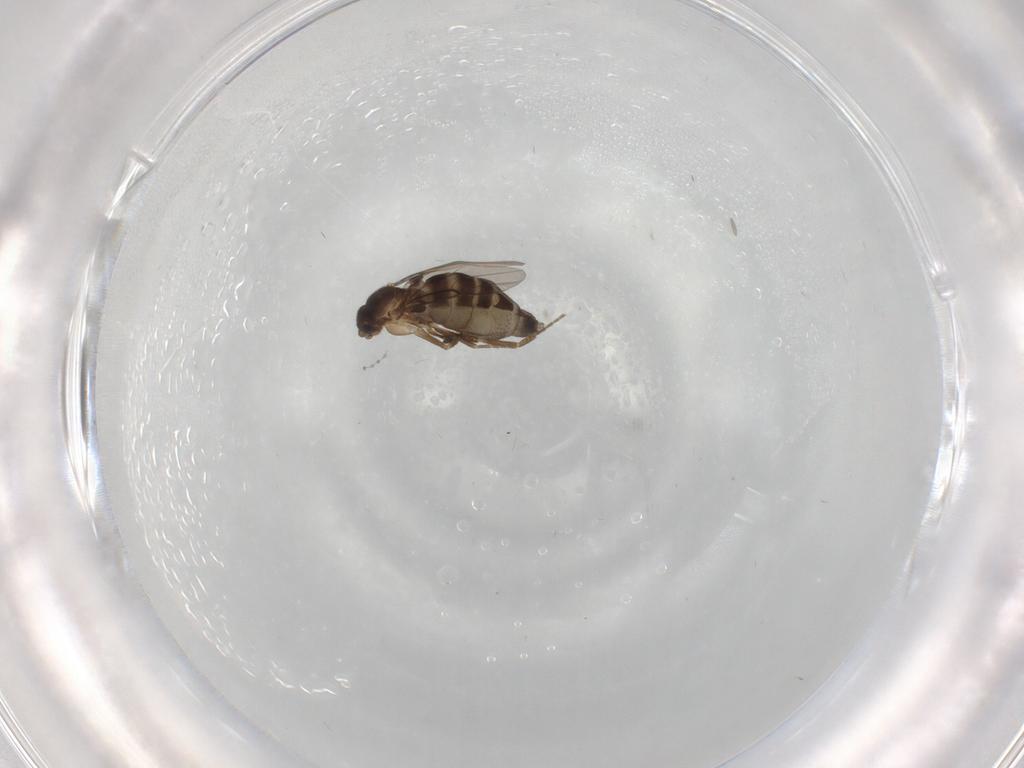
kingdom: Animalia
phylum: Arthropoda
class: Insecta
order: Diptera
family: Phoridae
